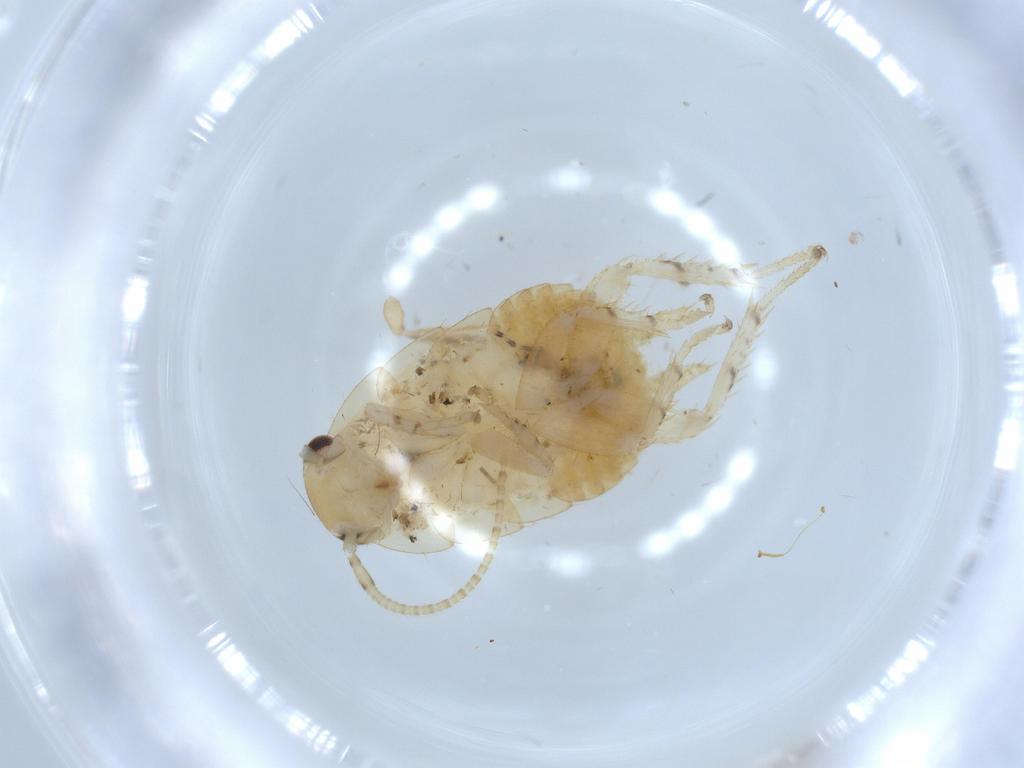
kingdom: Animalia
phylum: Arthropoda
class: Insecta
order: Blattodea
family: Ectobiidae
